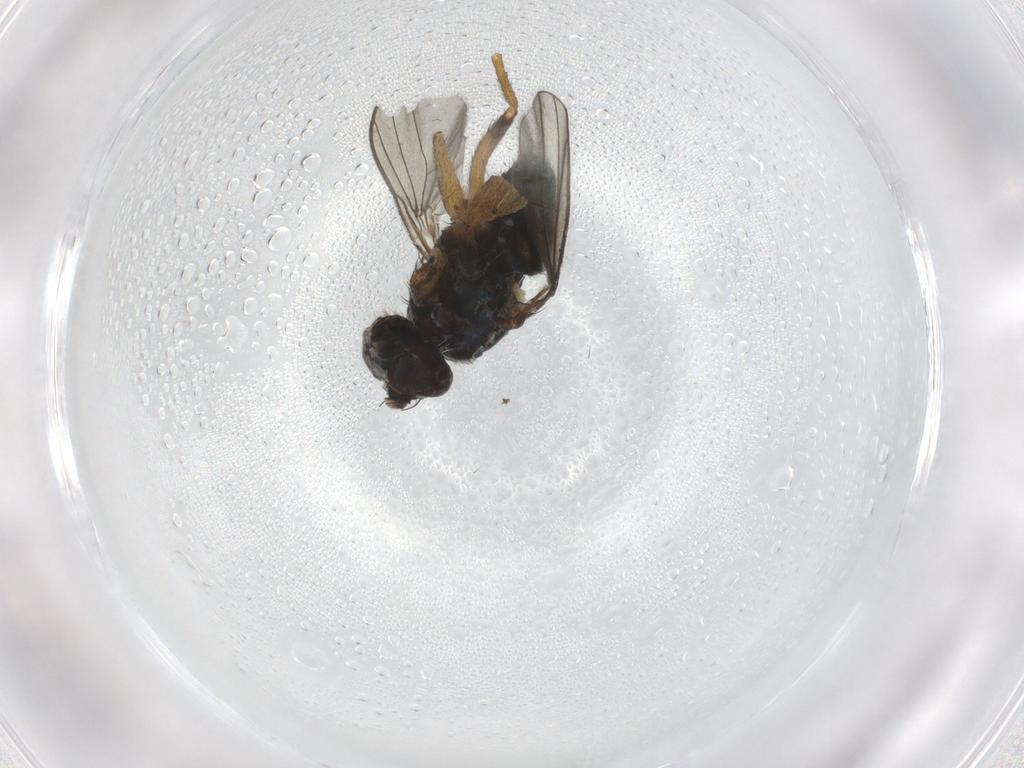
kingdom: Animalia
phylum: Arthropoda
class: Insecta
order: Diptera
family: Dolichopodidae
